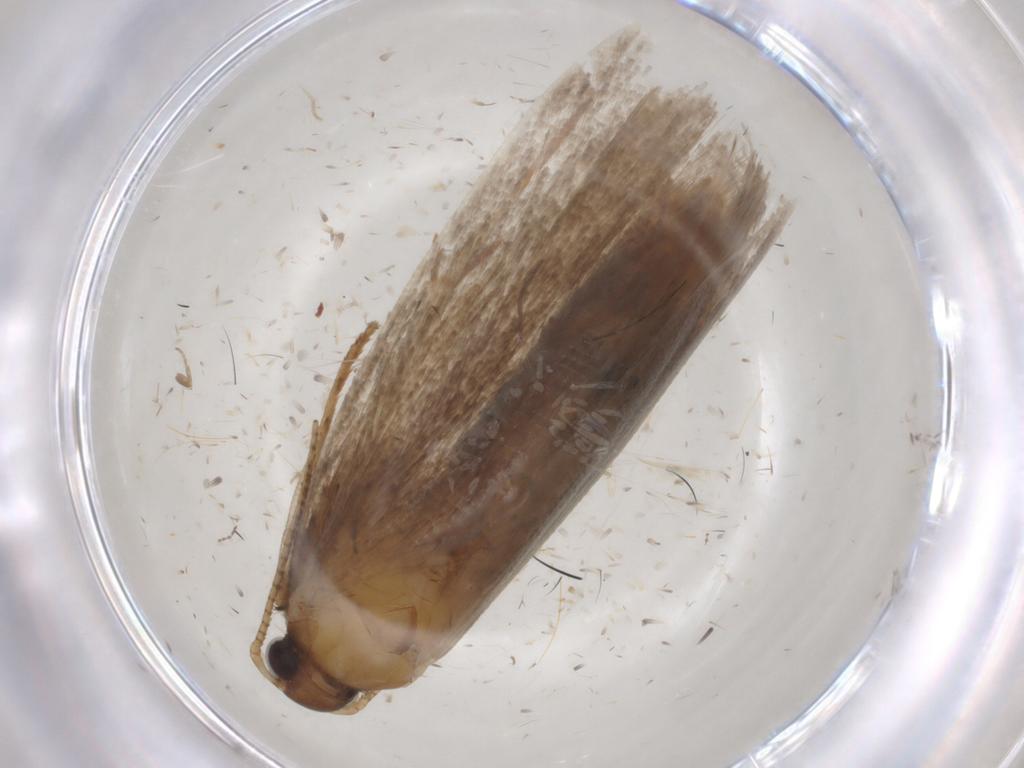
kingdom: Animalia
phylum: Arthropoda
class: Insecta
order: Lepidoptera
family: Gelechiidae
